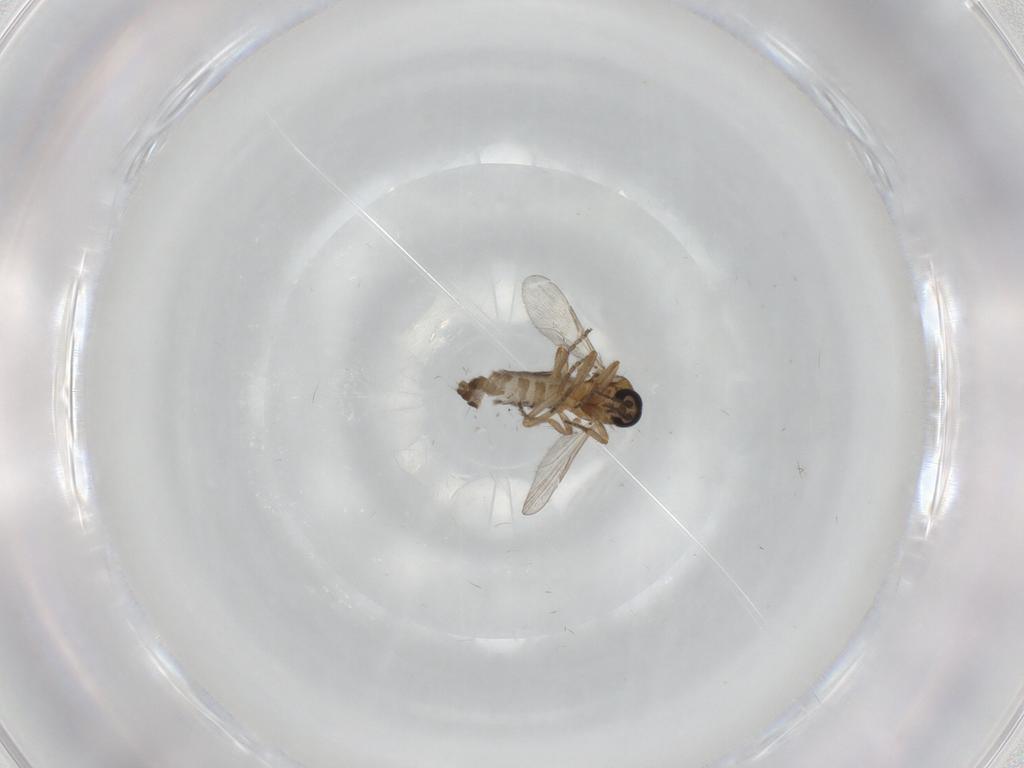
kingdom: Animalia
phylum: Arthropoda
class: Insecta
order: Diptera
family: Ceratopogonidae
